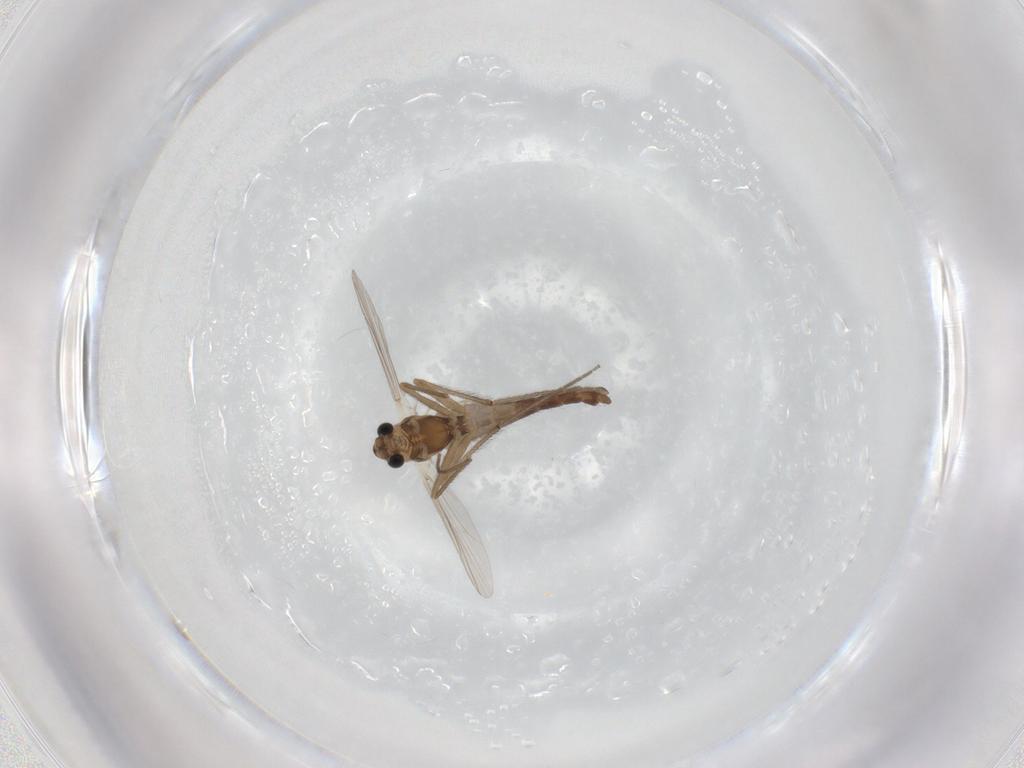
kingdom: Animalia
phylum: Arthropoda
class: Insecta
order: Diptera
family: Chironomidae
